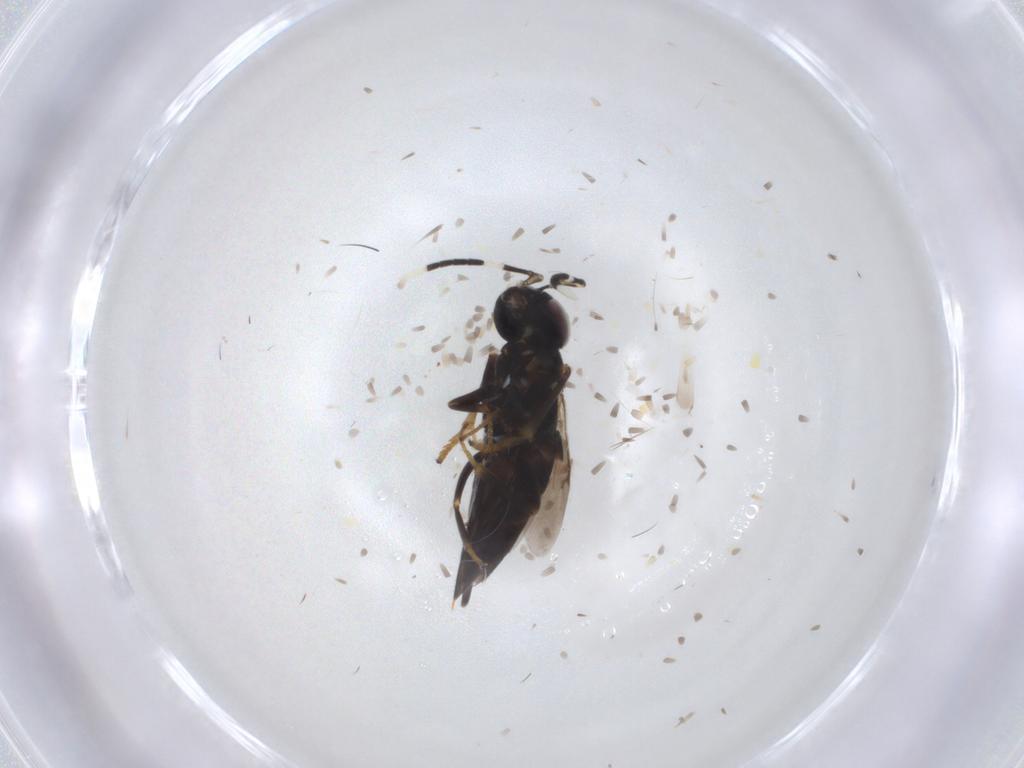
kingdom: Animalia
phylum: Arthropoda
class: Insecta
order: Hymenoptera
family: Encyrtidae
